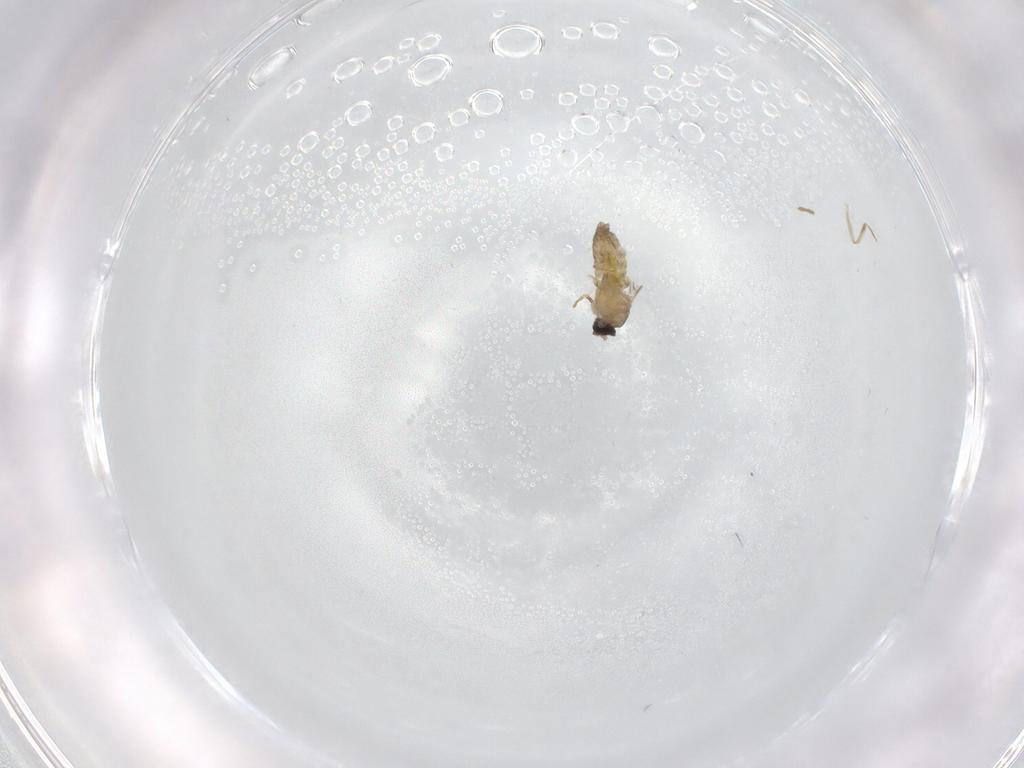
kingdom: Animalia
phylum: Arthropoda
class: Insecta
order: Diptera
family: Cecidomyiidae
